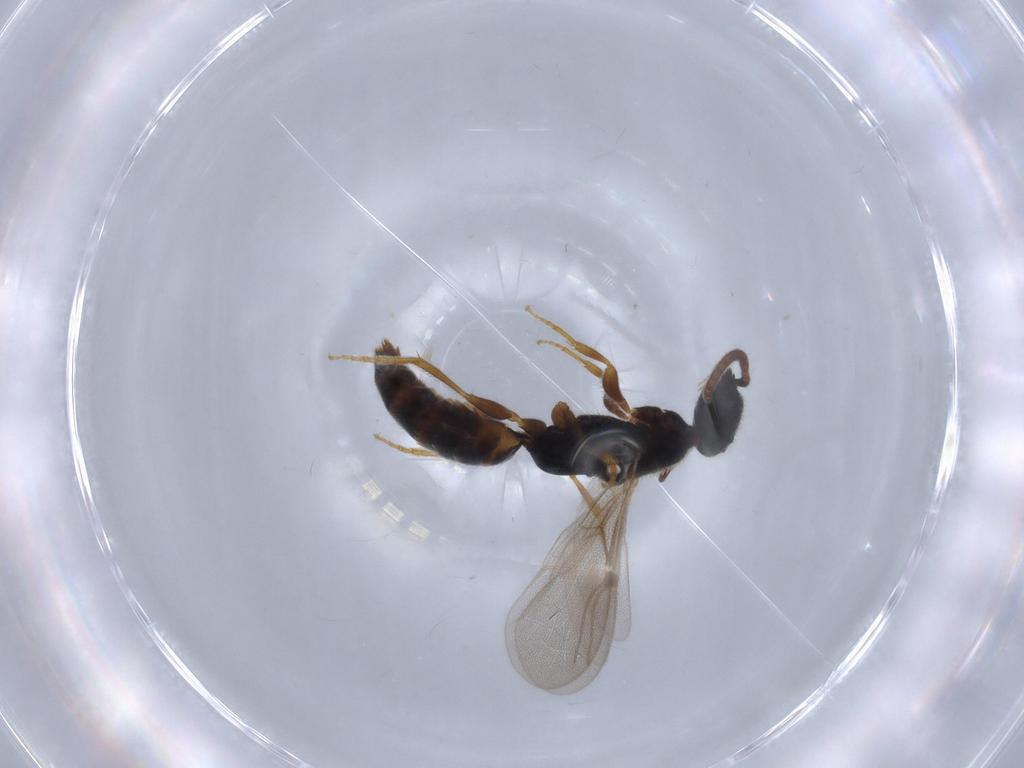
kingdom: Animalia
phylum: Arthropoda
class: Insecta
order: Hymenoptera
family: Bethylidae
